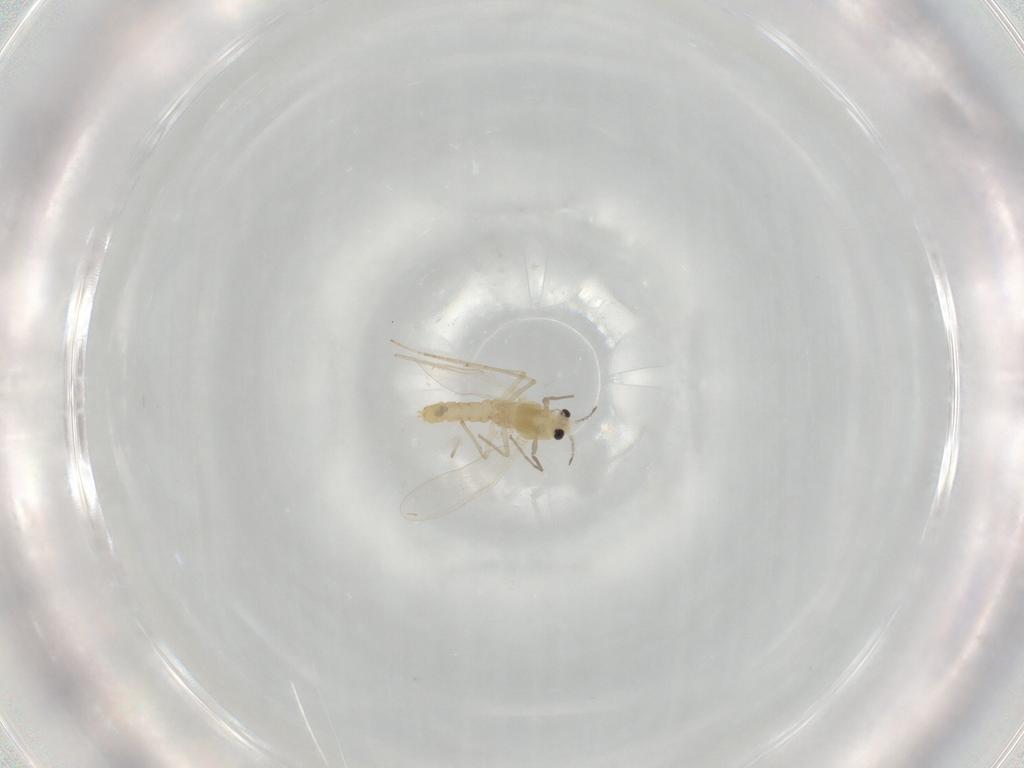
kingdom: Animalia
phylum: Arthropoda
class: Insecta
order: Diptera
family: Chironomidae
